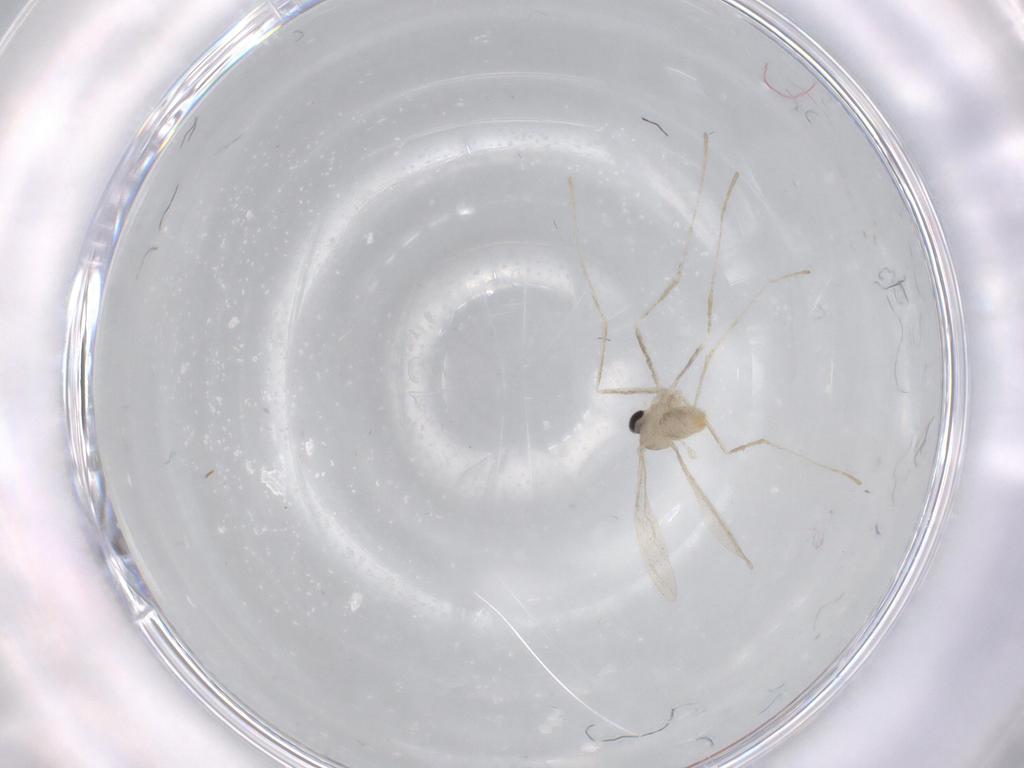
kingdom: Animalia
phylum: Arthropoda
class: Insecta
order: Diptera
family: Cecidomyiidae
